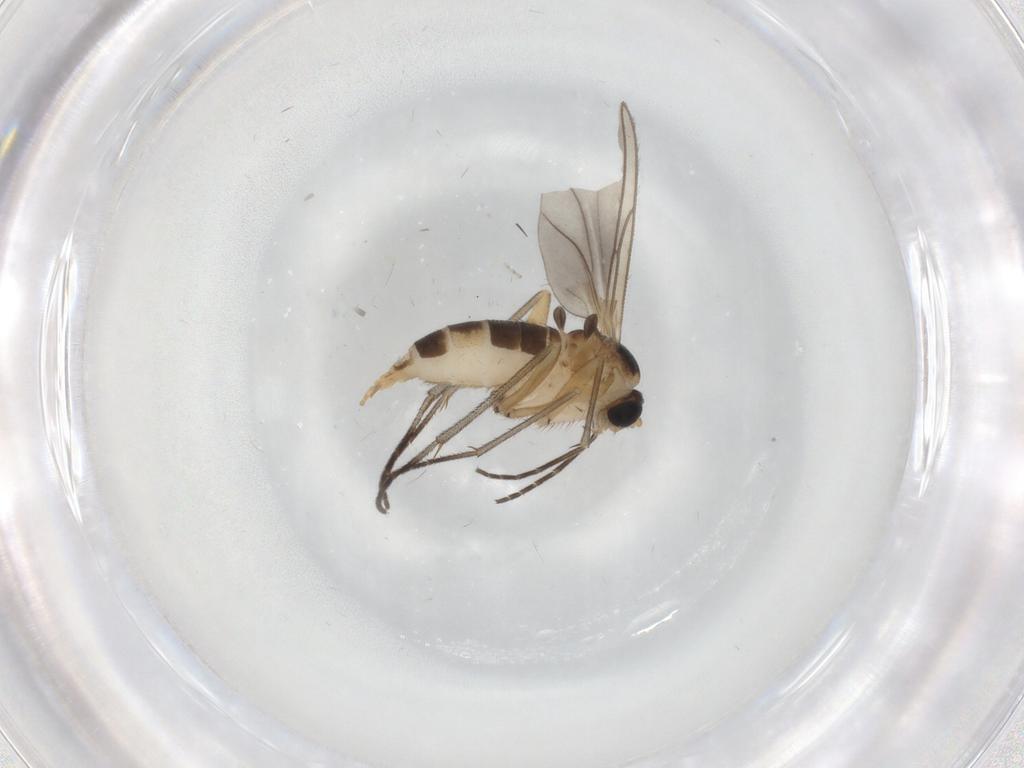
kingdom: Animalia
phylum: Arthropoda
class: Insecta
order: Diptera
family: Sciaridae
